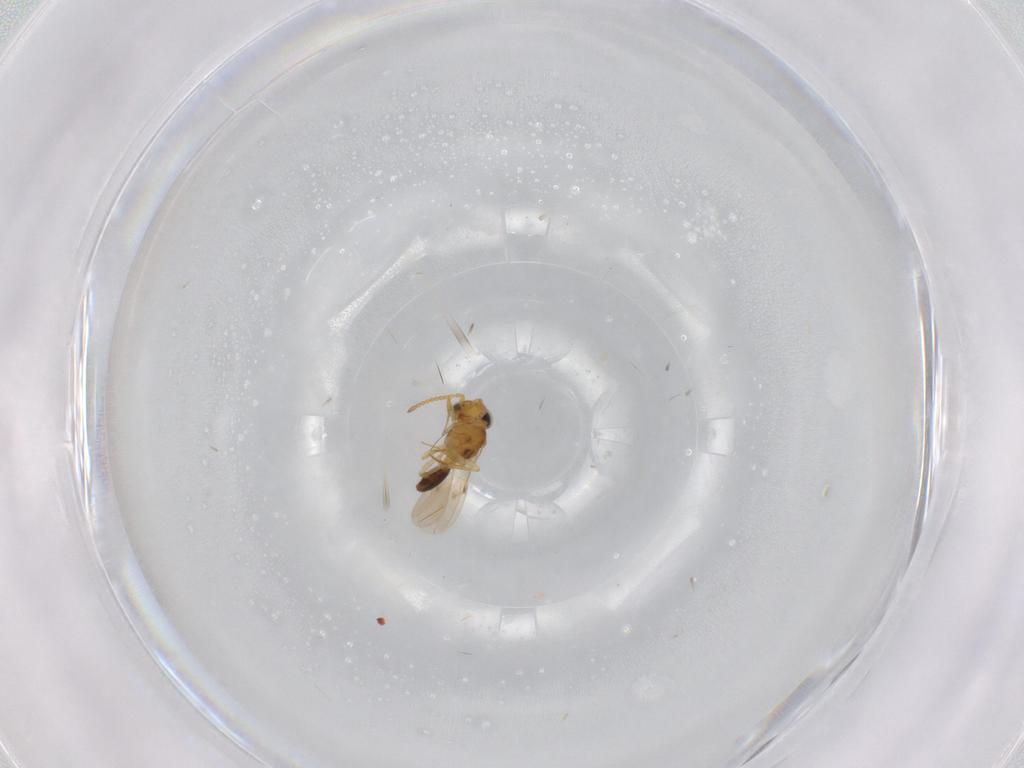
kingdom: Animalia
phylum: Arthropoda
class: Insecta
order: Hymenoptera
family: Scelionidae
